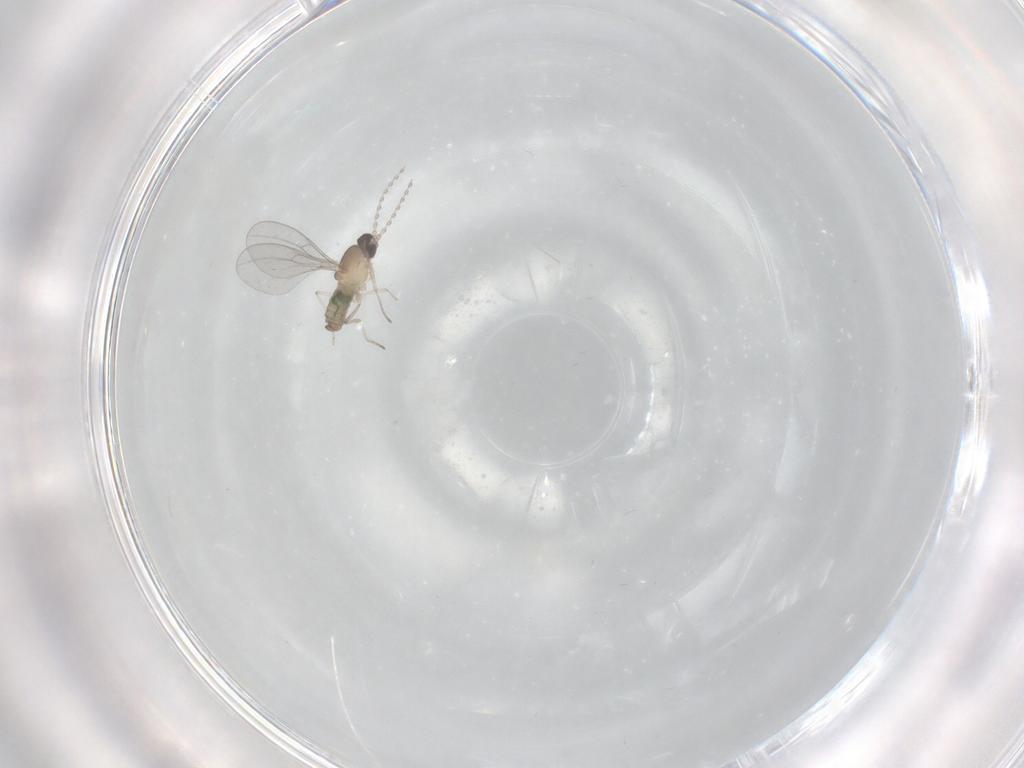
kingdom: Animalia
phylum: Arthropoda
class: Insecta
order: Diptera
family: Cecidomyiidae
